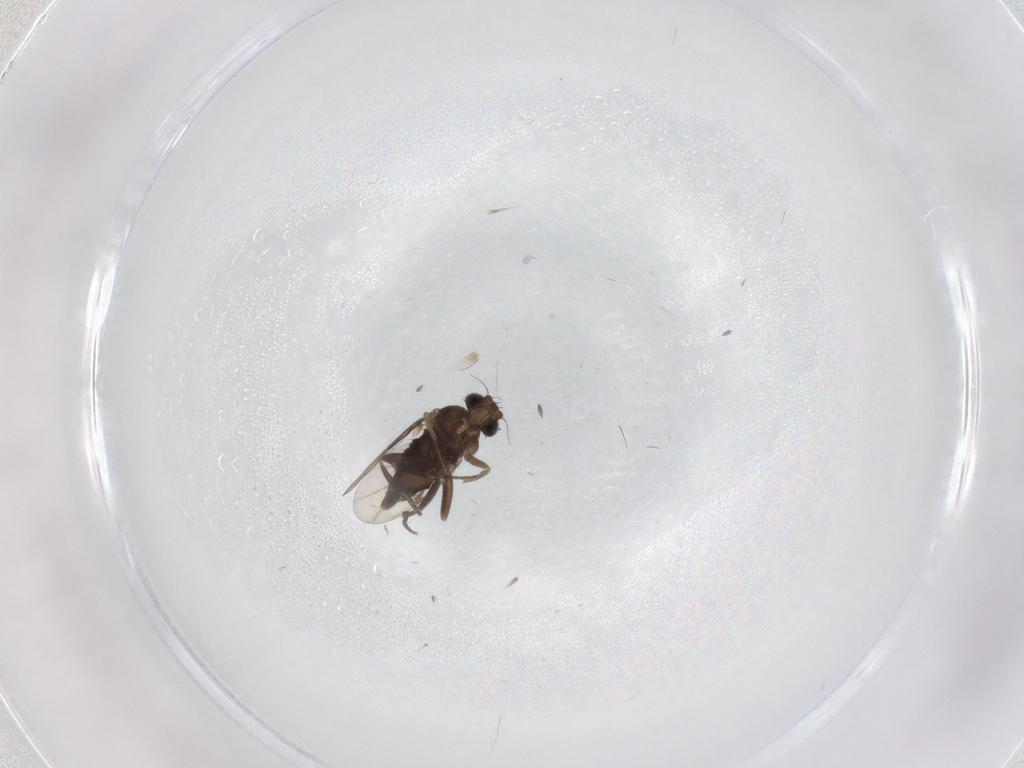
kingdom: Animalia
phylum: Arthropoda
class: Insecta
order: Diptera
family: Phoridae
